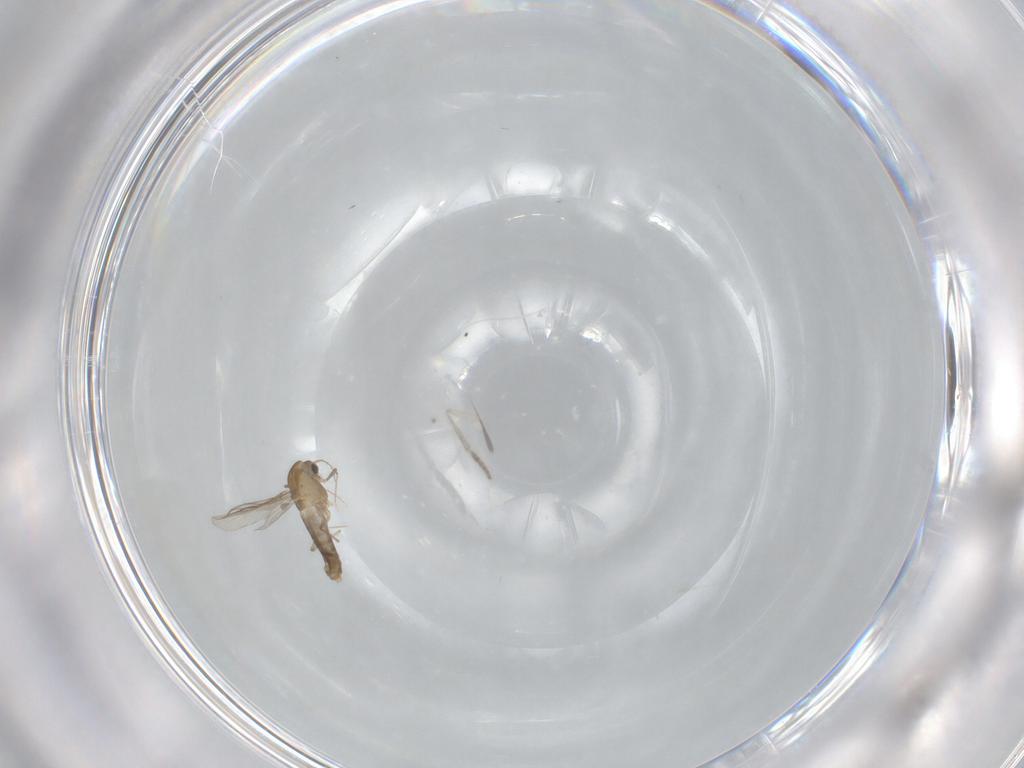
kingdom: Animalia
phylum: Arthropoda
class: Insecta
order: Diptera
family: Chironomidae
